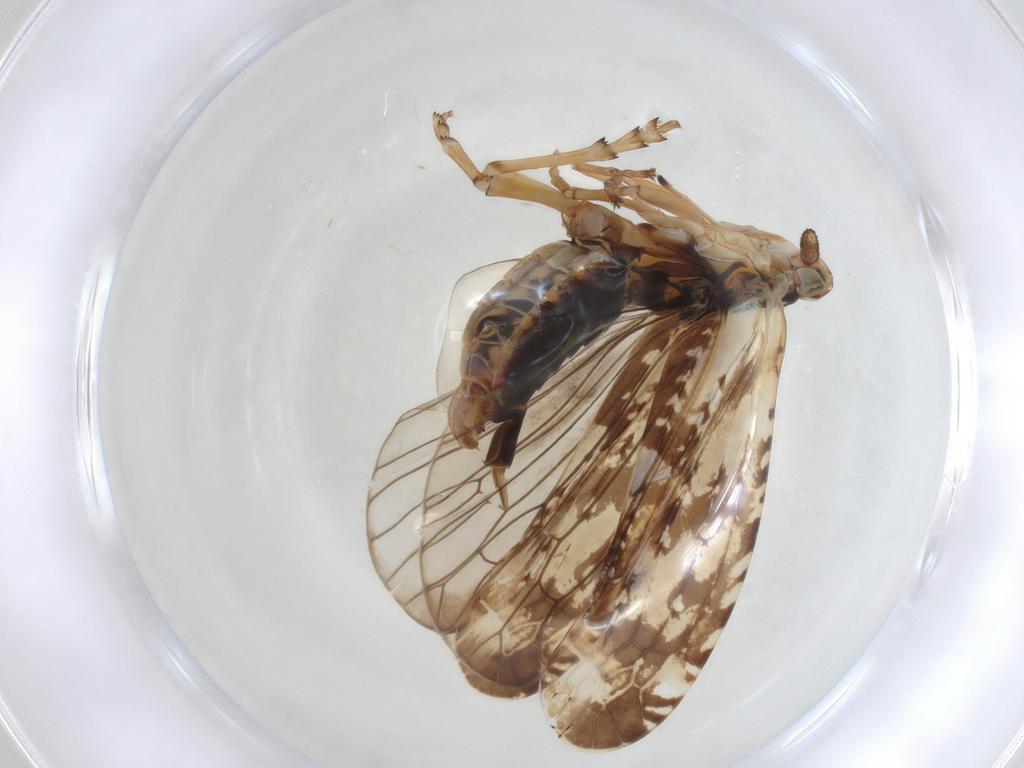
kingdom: Animalia
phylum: Arthropoda
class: Insecta
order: Hemiptera
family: Achilidae
